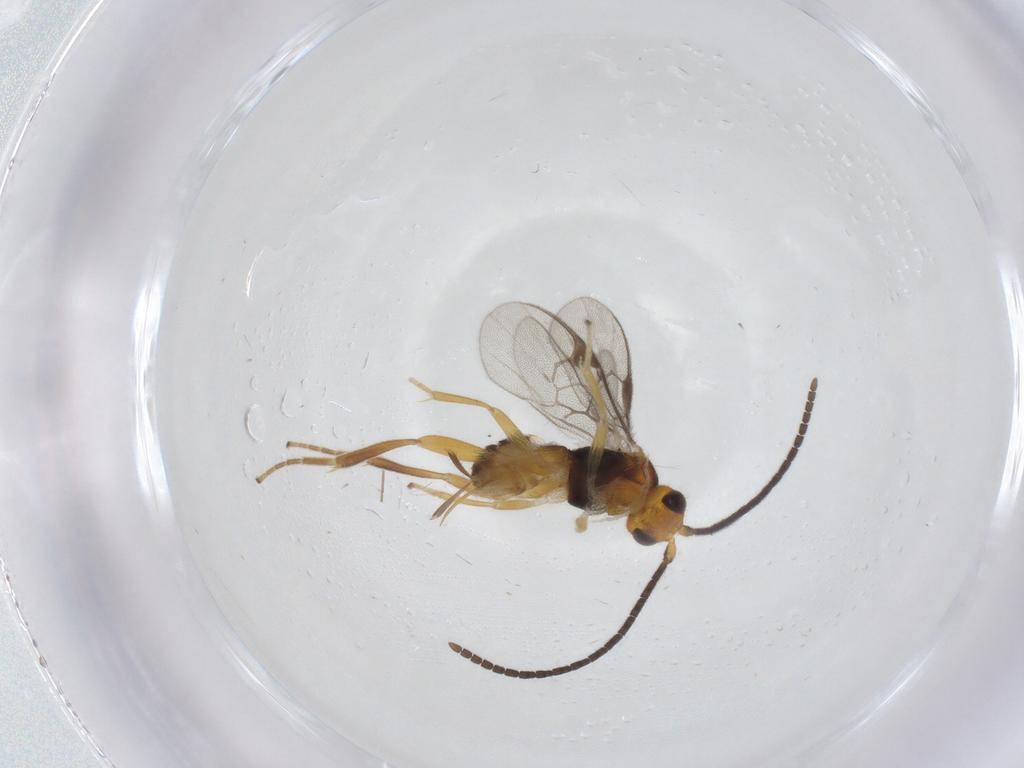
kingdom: Animalia
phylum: Arthropoda
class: Insecta
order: Hymenoptera
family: Braconidae
